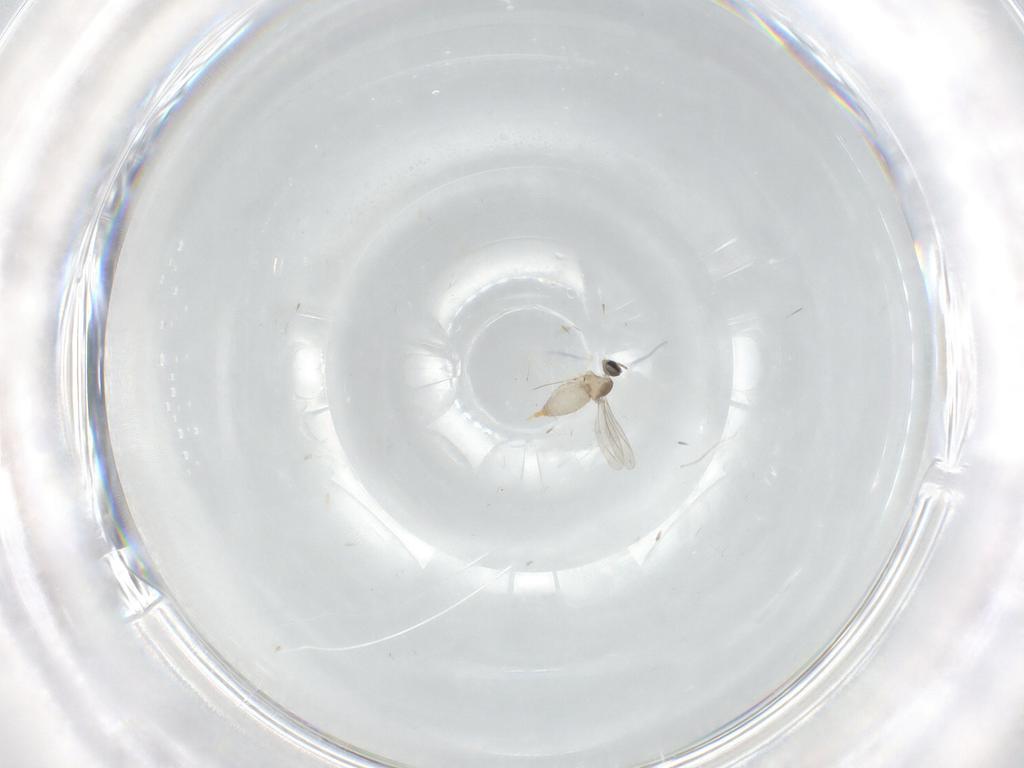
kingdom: Animalia
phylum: Arthropoda
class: Insecta
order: Diptera
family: Cecidomyiidae
